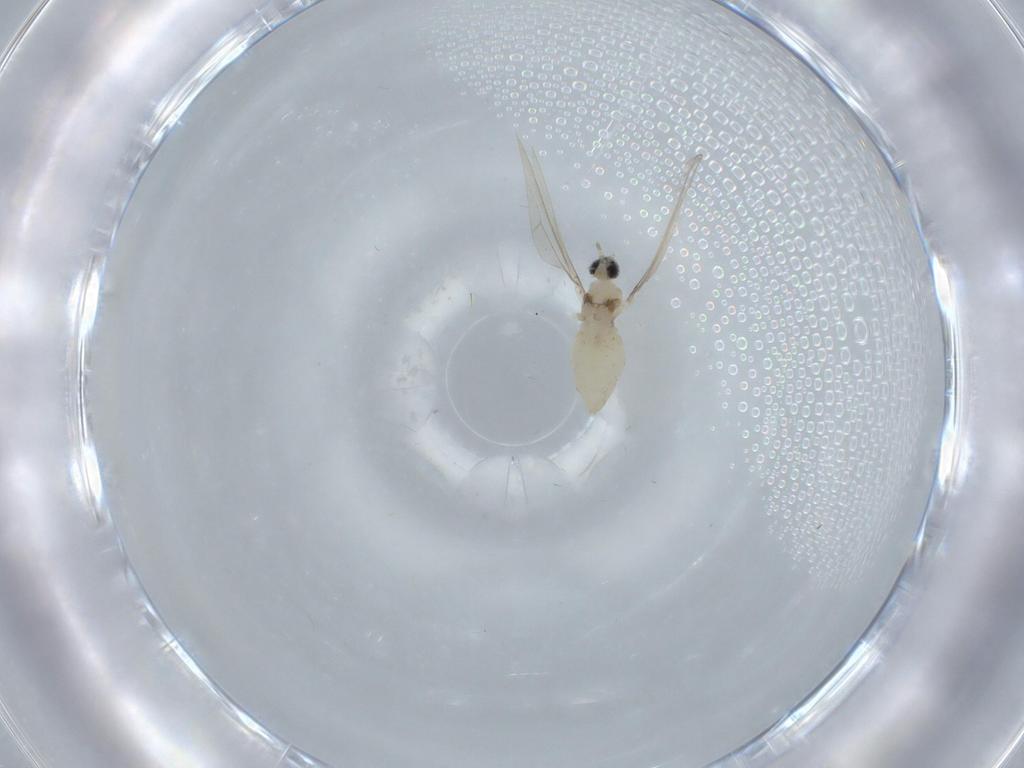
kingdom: Animalia
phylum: Arthropoda
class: Insecta
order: Diptera
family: Cecidomyiidae
